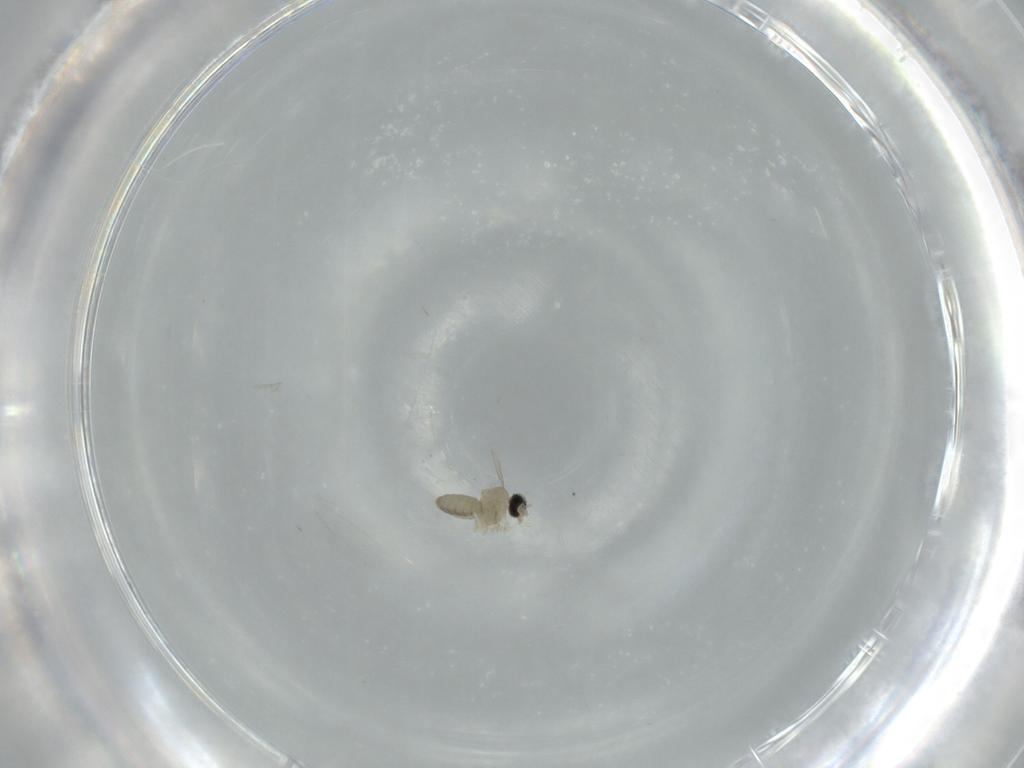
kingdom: Animalia
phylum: Arthropoda
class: Insecta
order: Diptera
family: Cecidomyiidae
